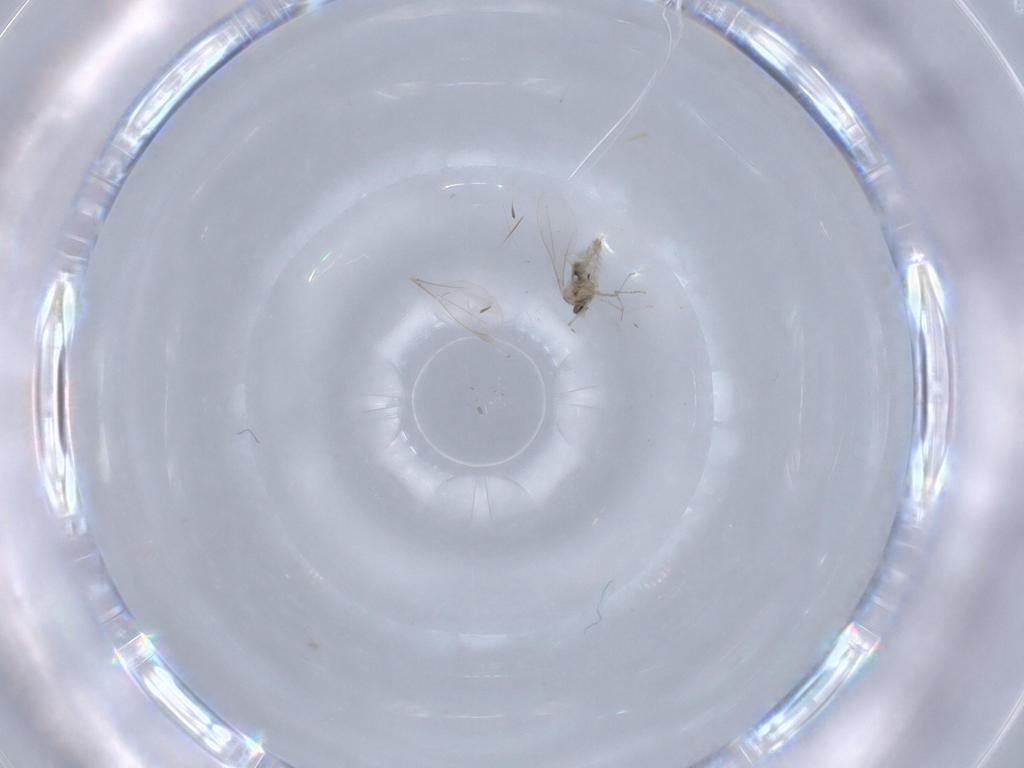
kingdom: Animalia
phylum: Arthropoda
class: Insecta
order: Diptera
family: Cecidomyiidae
